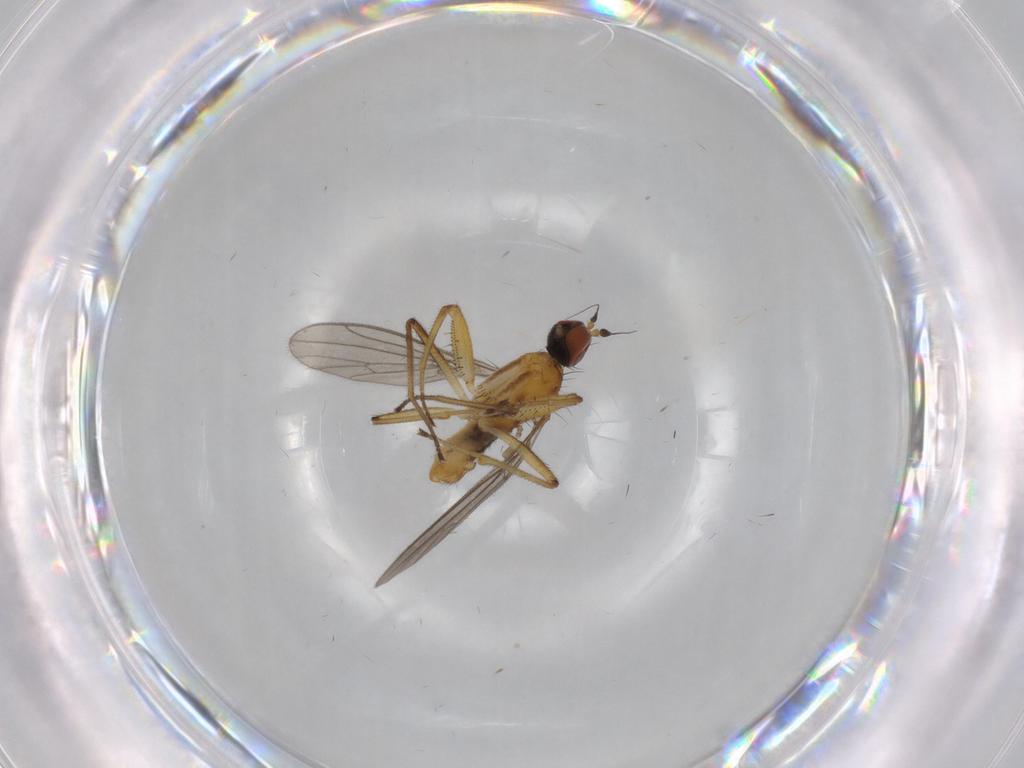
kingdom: Animalia
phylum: Arthropoda
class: Insecta
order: Diptera
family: Empididae
